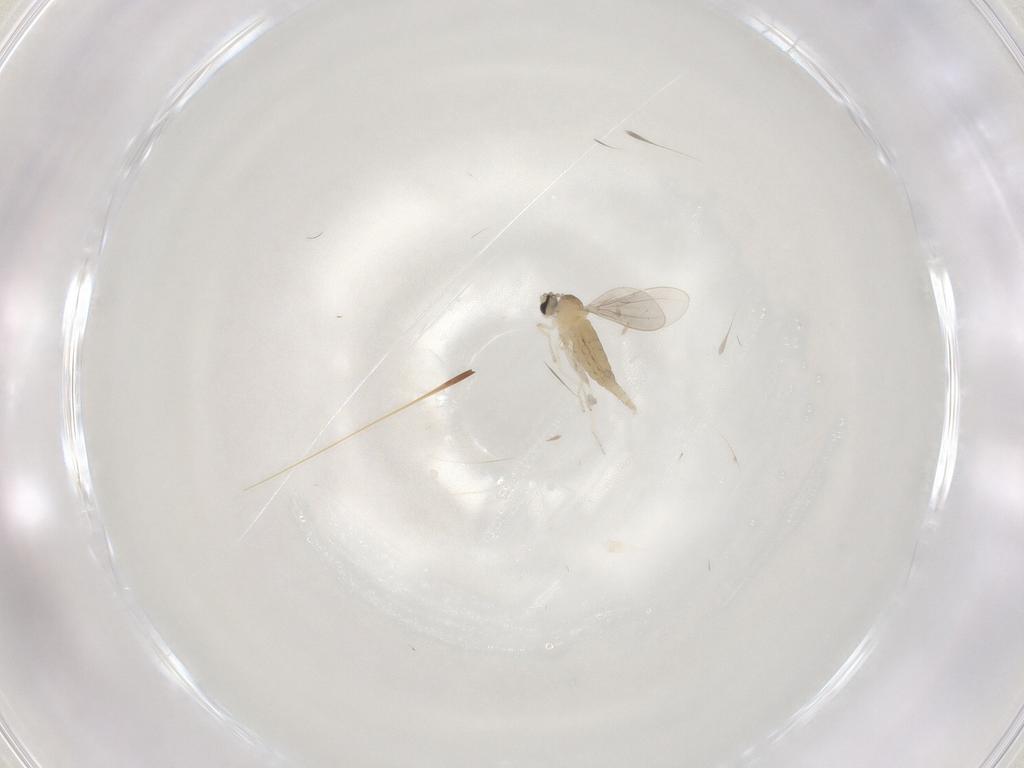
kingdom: Animalia
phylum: Arthropoda
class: Insecta
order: Diptera
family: Cecidomyiidae
